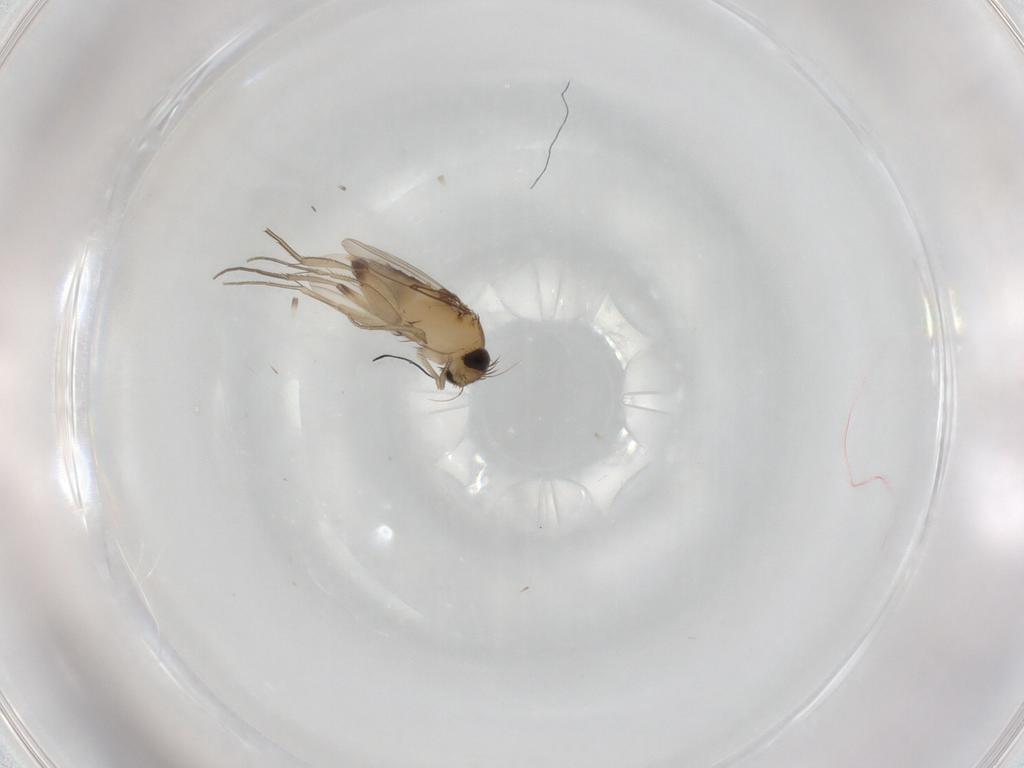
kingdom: Animalia
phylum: Arthropoda
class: Insecta
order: Diptera
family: Phoridae
